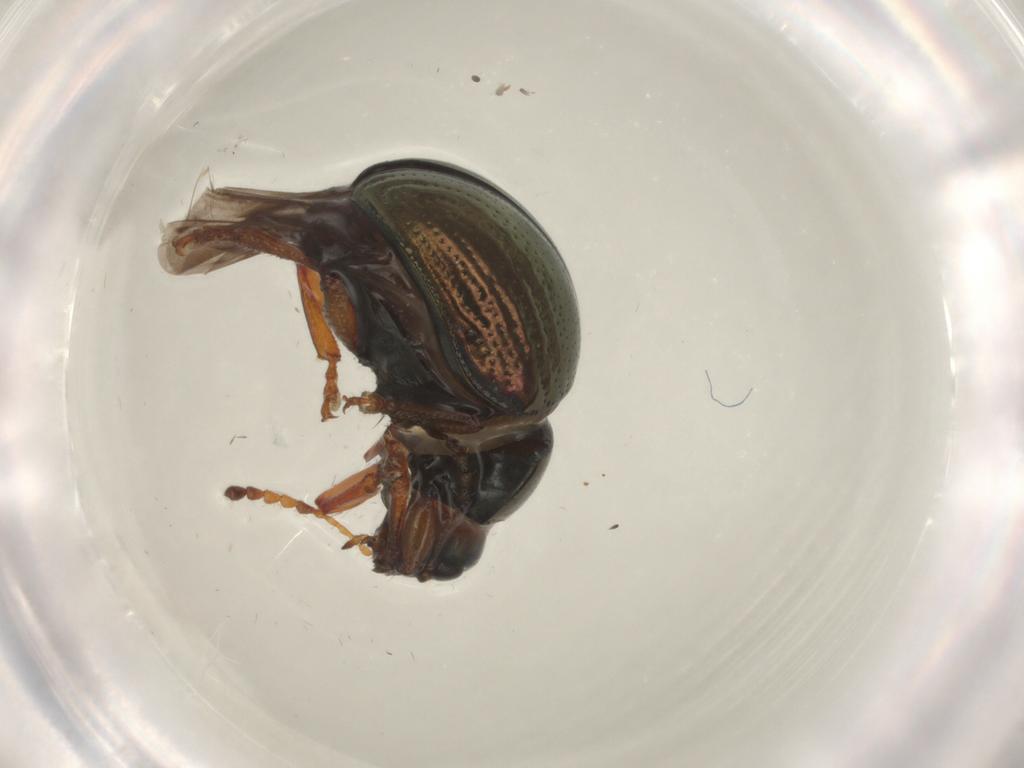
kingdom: Animalia
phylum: Arthropoda
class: Insecta
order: Coleoptera
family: Chrysomelidae
